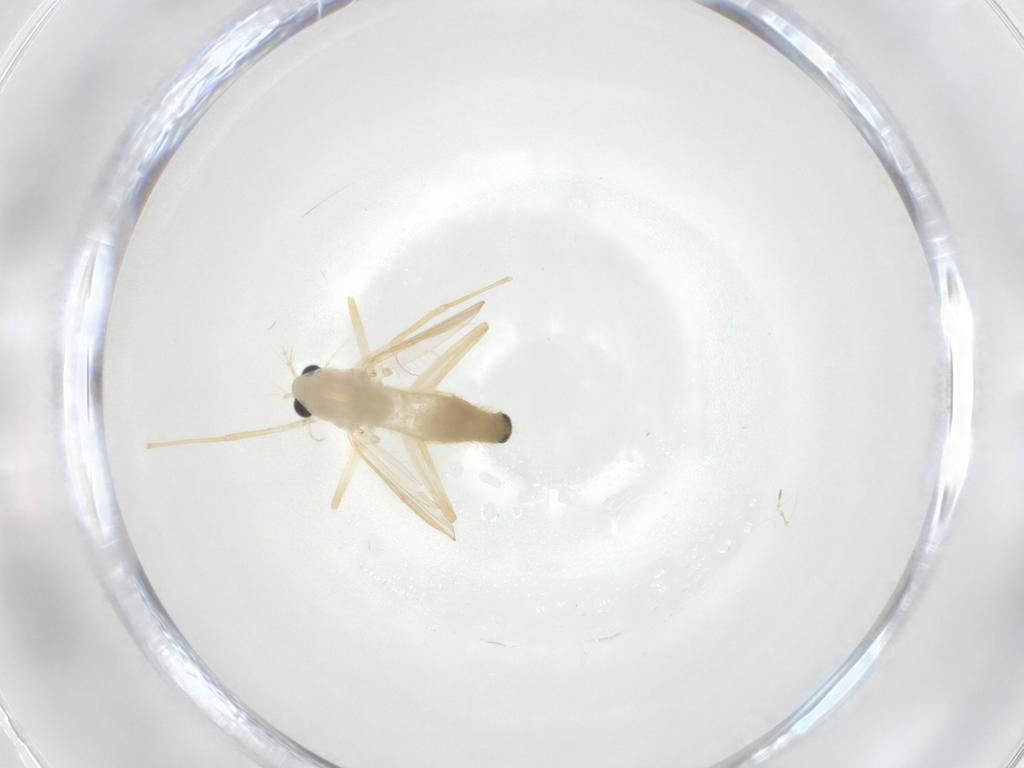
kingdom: Animalia
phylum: Arthropoda
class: Insecta
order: Diptera
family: Chironomidae
